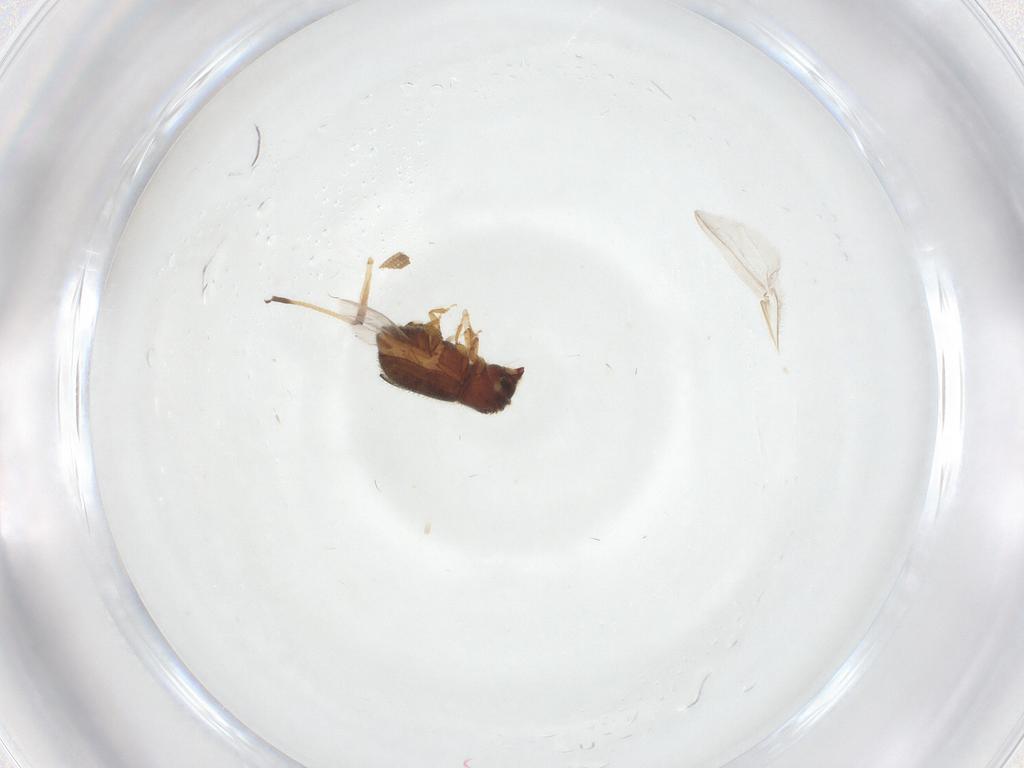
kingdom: Animalia
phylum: Arthropoda
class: Insecta
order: Coleoptera
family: Curculionidae
